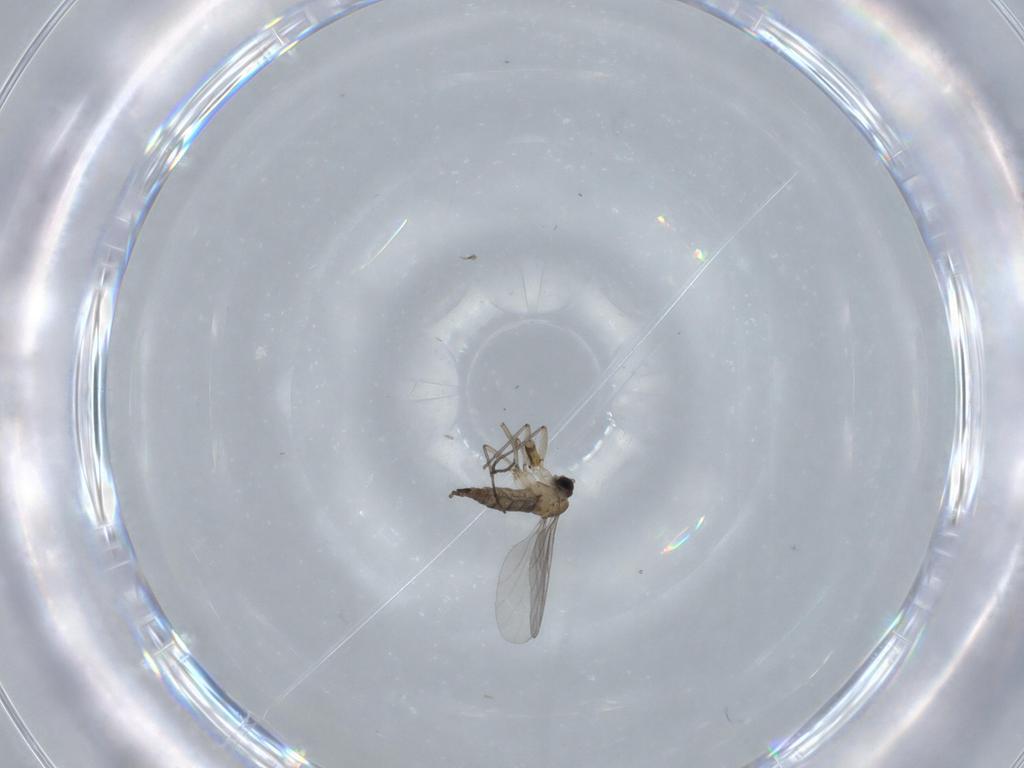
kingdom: Animalia
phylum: Arthropoda
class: Insecta
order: Diptera
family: Sciaridae
